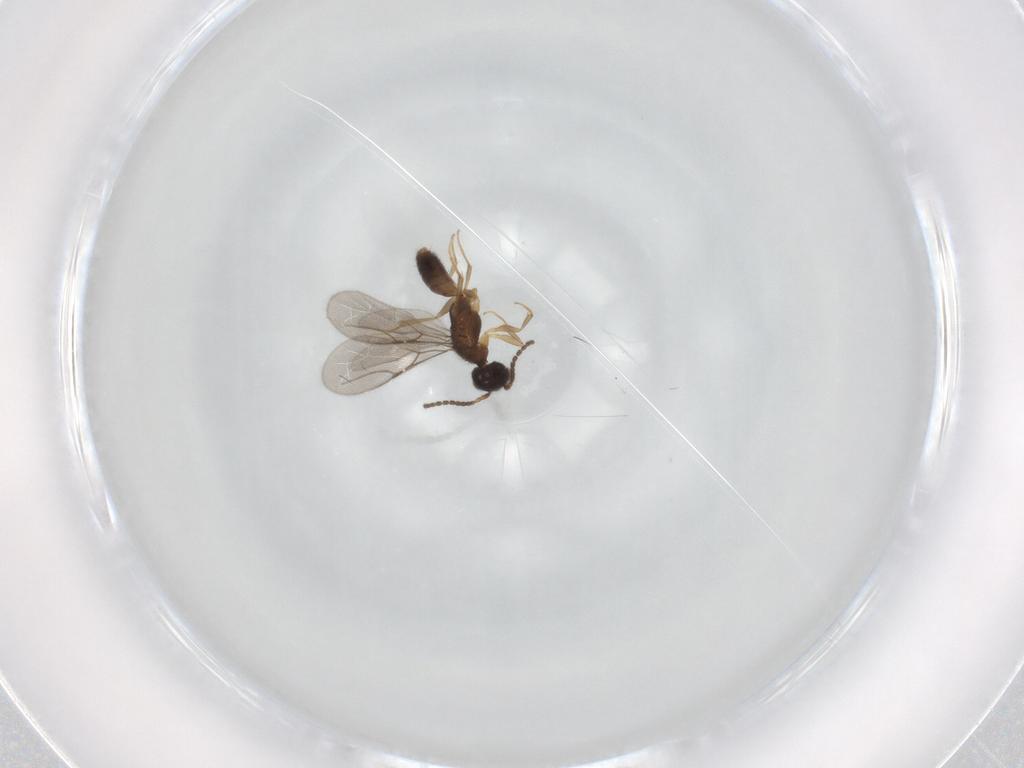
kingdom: Animalia
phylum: Arthropoda
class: Insecta
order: Hymenoptera
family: Bethylidae
